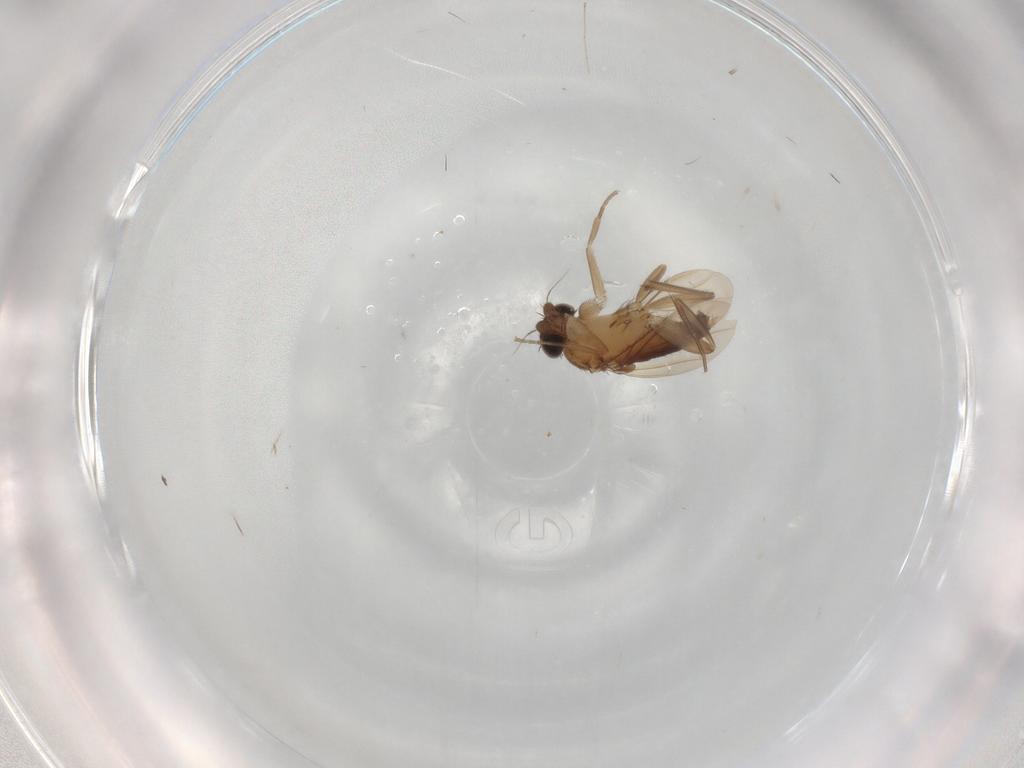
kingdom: Animalia
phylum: Arthropoda
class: Insecta
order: Diptera
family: Phoridae
